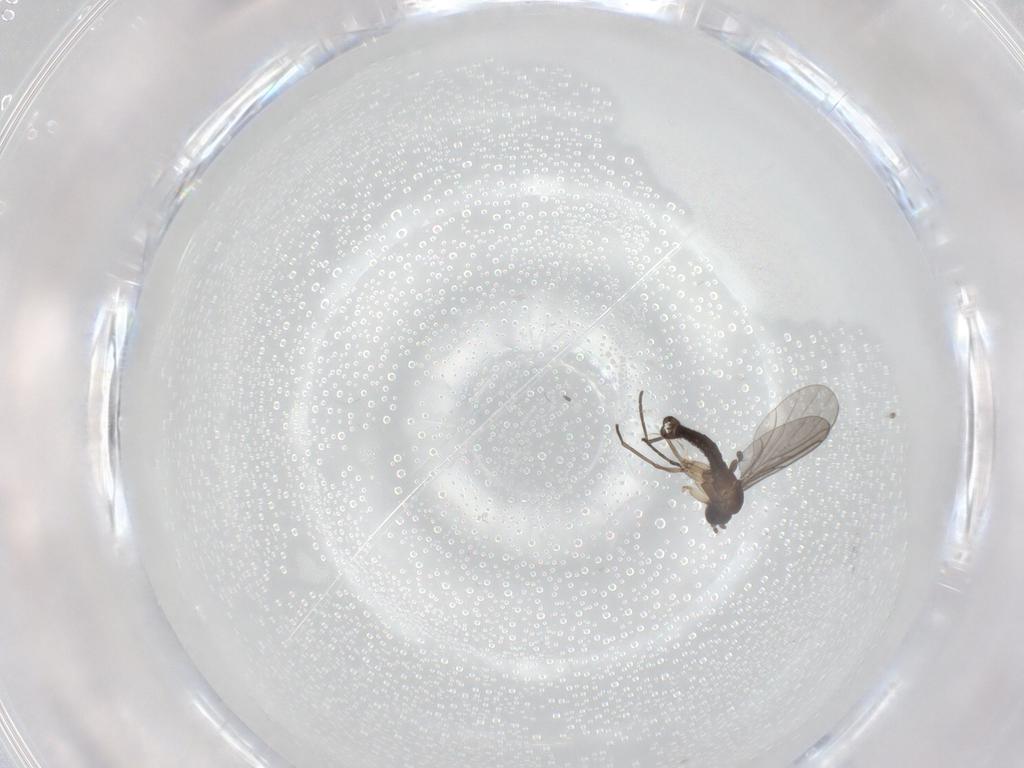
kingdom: Animalia
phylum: Arthropoda
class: Insecta
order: Diptera
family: Sciaridae
